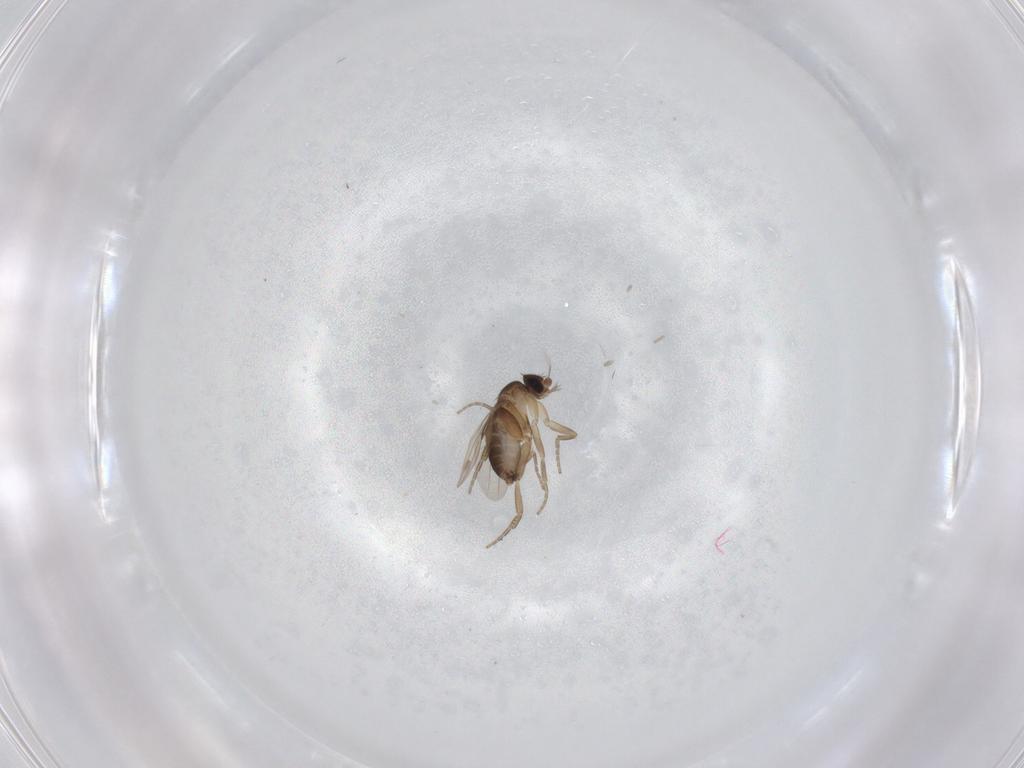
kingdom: Animalia
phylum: Arthropoda
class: Insecta
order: Diptera
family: Phoridae
